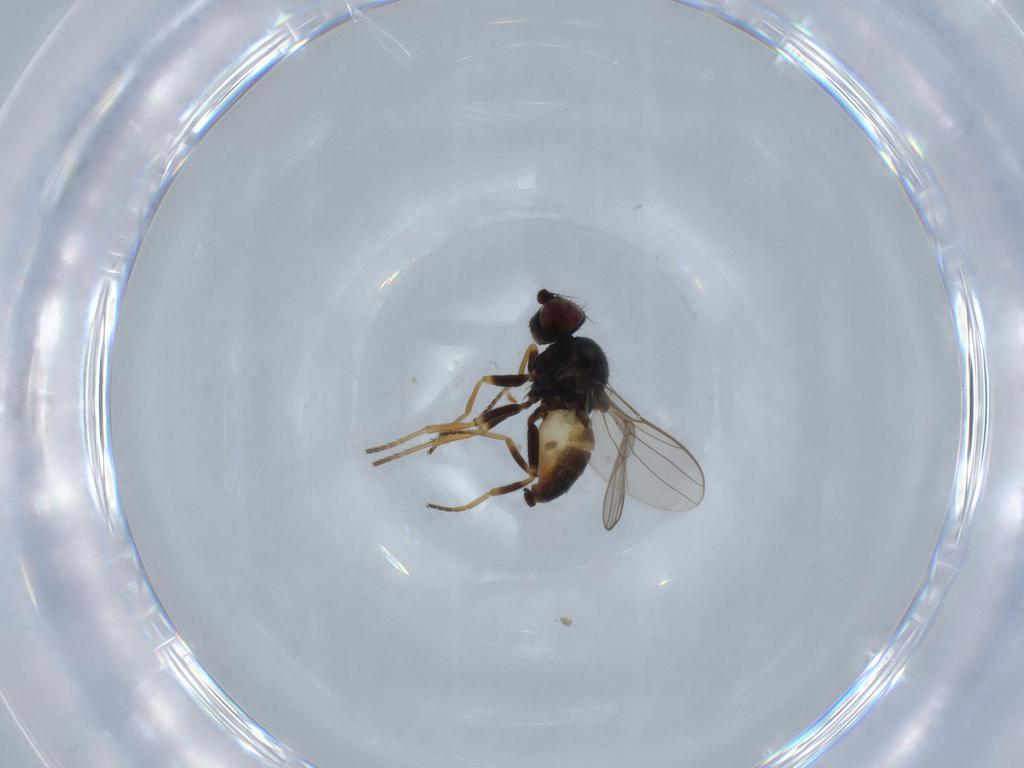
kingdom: Animalia
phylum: Arthropoda
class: Insecta
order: Diptera
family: Chloropidae
